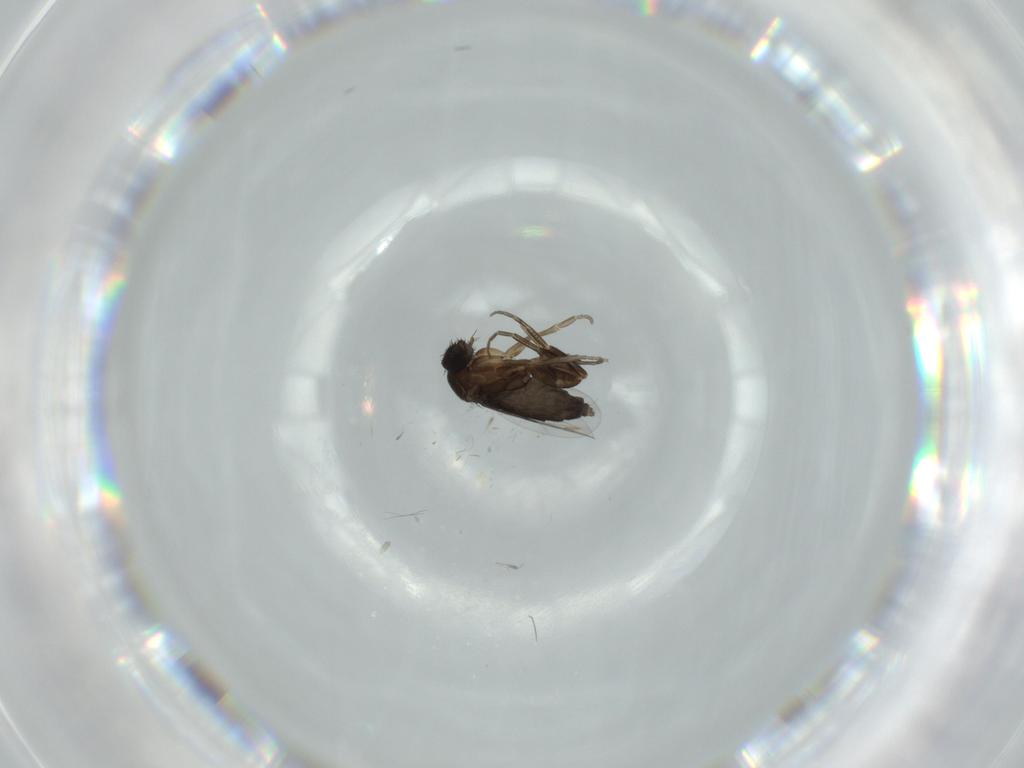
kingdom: Animalia
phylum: Arthropoda
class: Insecta
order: Diptera
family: Phoridae
